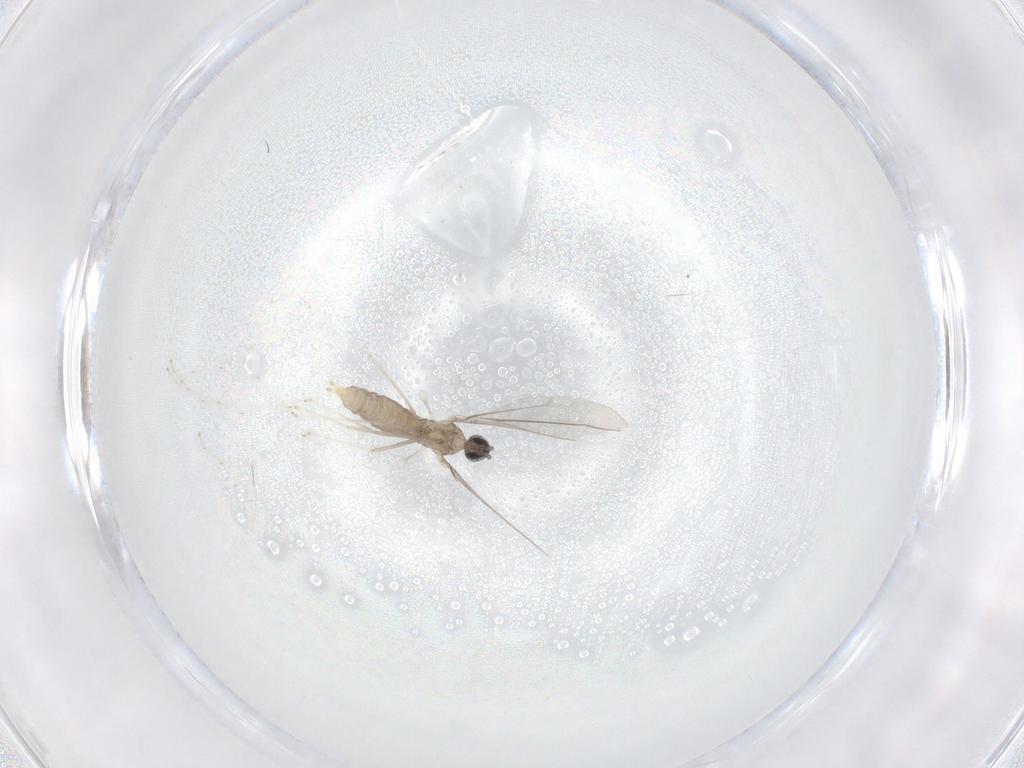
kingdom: Animalia
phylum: Arthropoda
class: Insecta
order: Diptera
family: Cecidomyiidae
